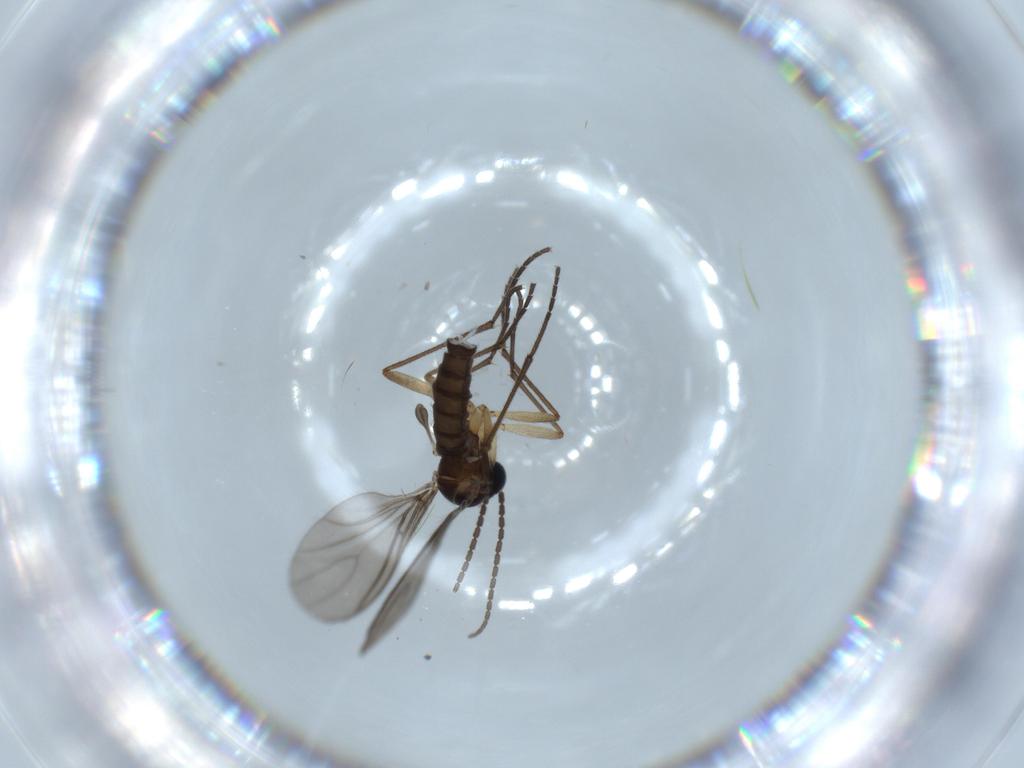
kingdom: Animalia
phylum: Arthropoda
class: Insecta
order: Diptera
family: Sciaridae
